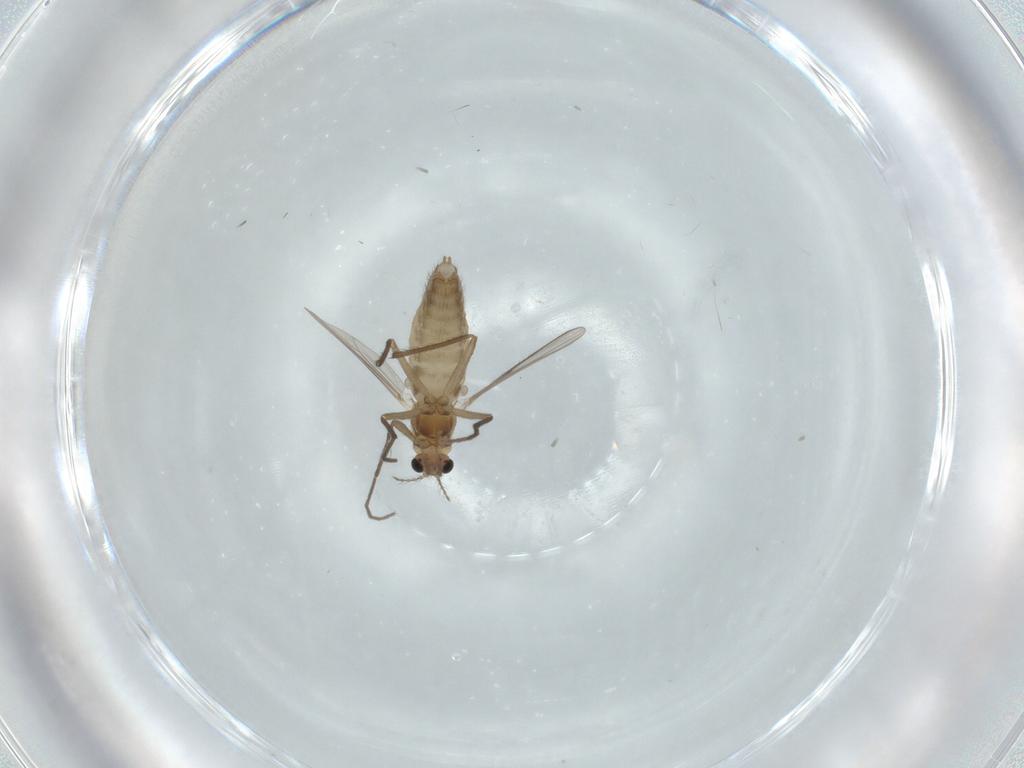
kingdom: Animalia
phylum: Arthropoda
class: Insecta
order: Diptera
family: Chironomidae
